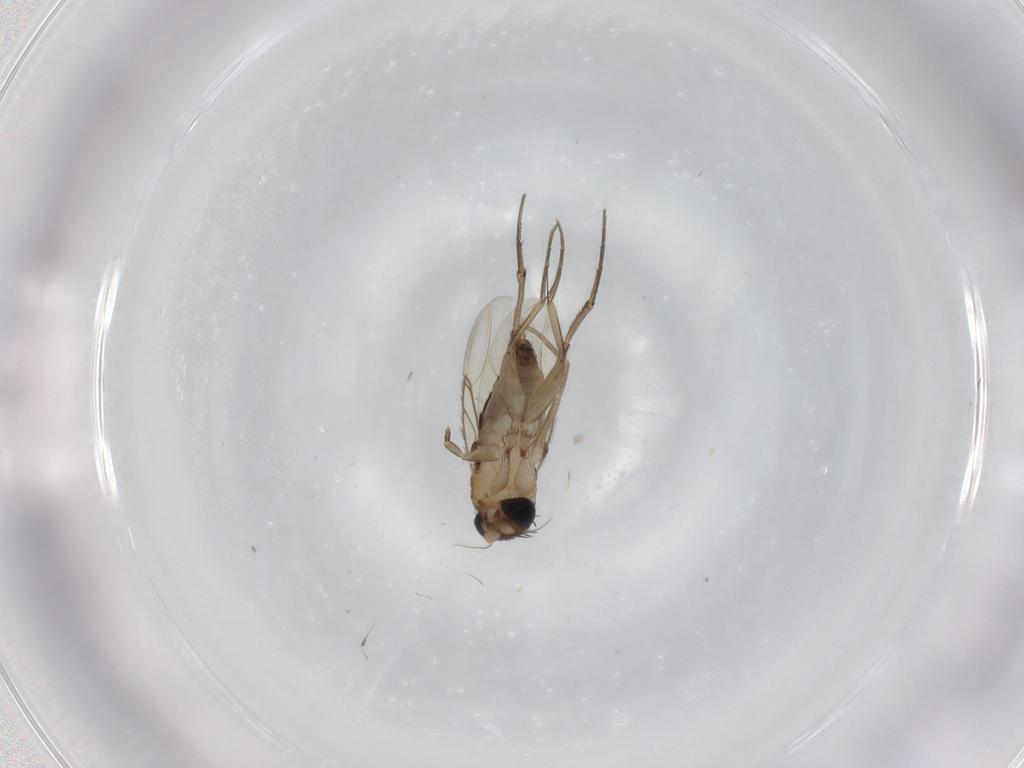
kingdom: Animalia
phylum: Arthropoda
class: Insecta
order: Diptera
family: Phoridae
